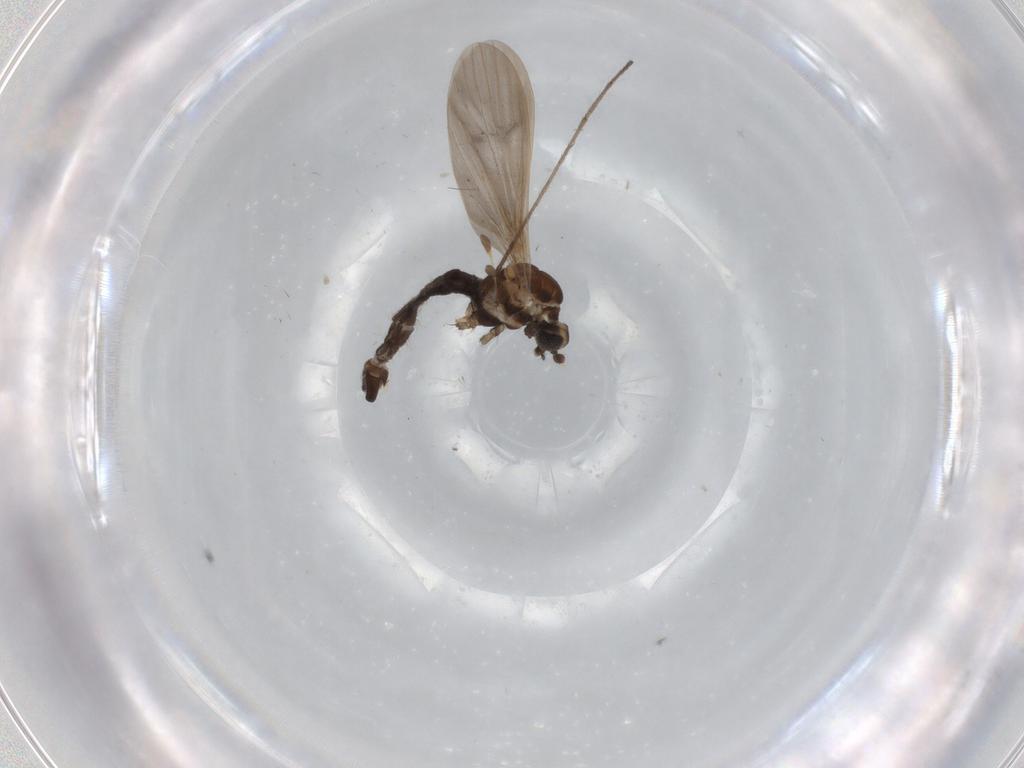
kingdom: Animalia
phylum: Arthropoda
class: Insecta
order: Diptera
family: Limoniidae
